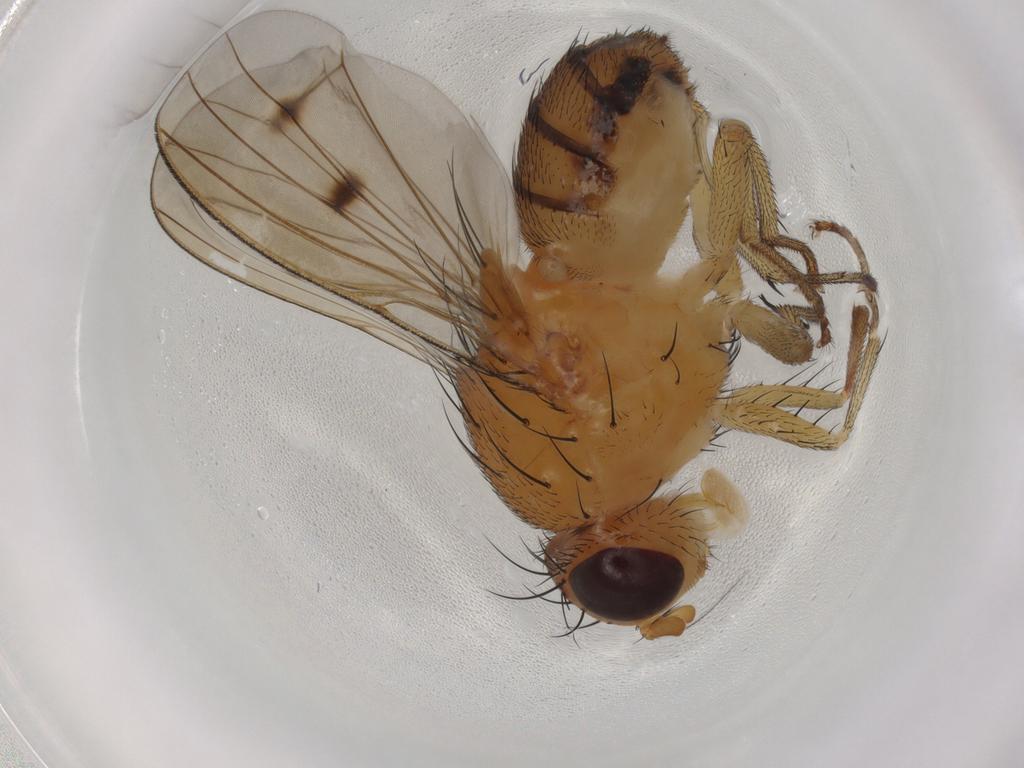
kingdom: Animalia
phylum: Arthropoda
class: Insecta
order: Diptera
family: Lauxaniidae
